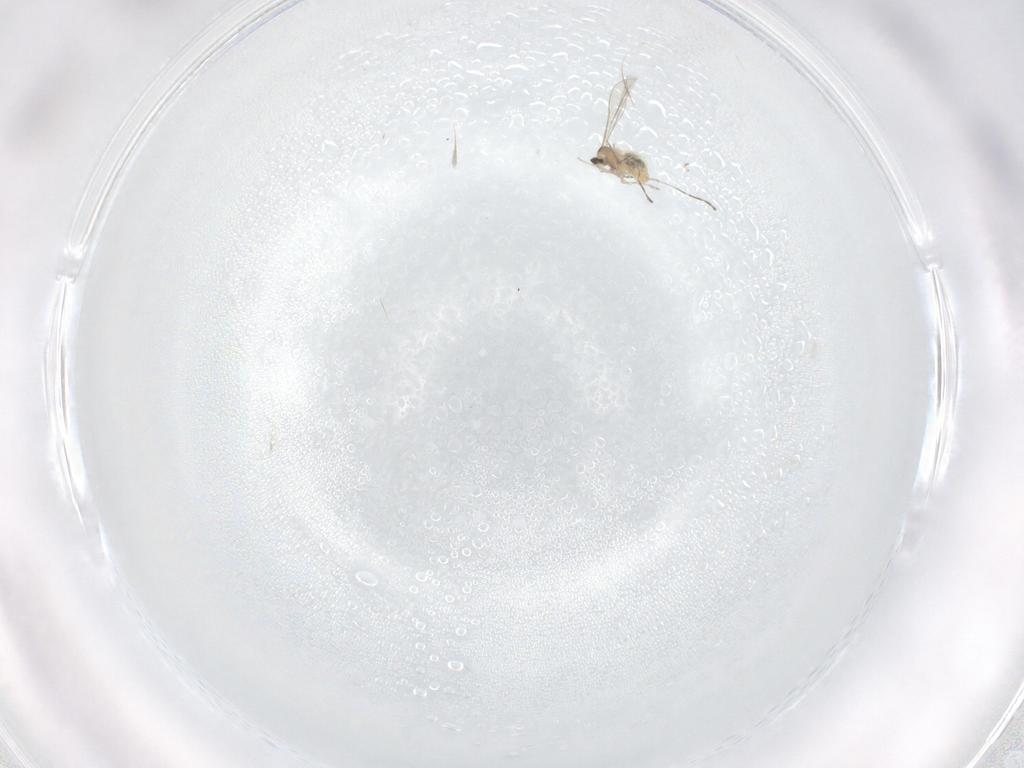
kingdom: Animalia
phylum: Arthropoda
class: Insecta
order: Diptera
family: Cecidomyiidae
